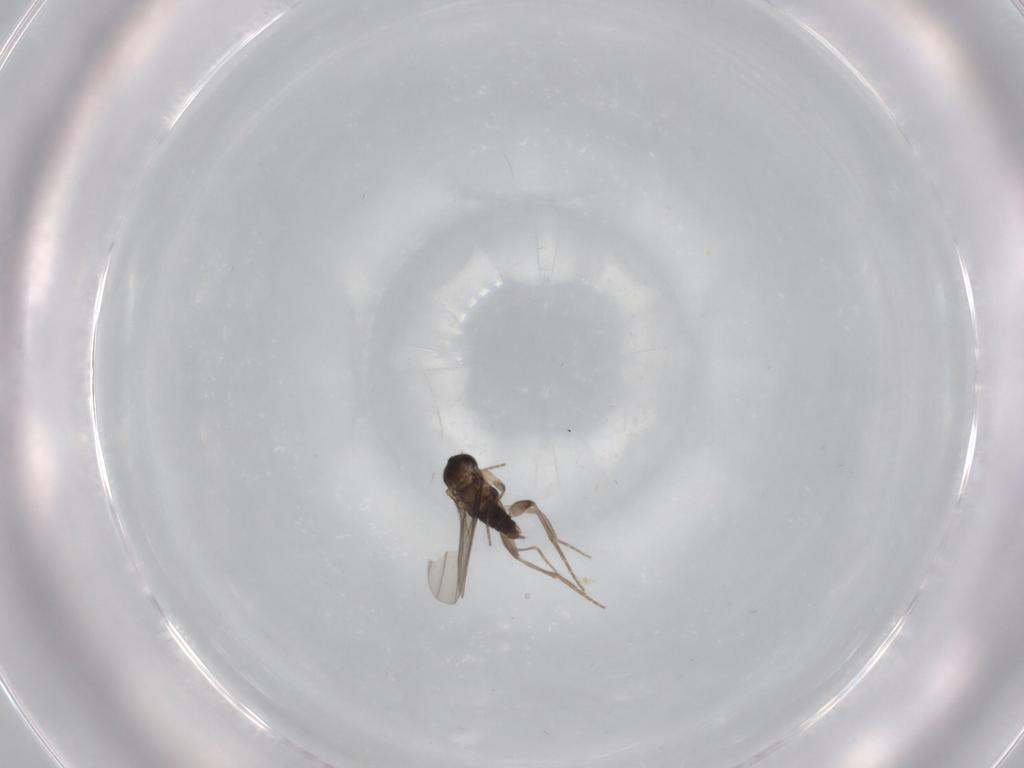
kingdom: Animalia
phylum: Arthropoda
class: Insecta
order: Diptera
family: Phoridae
